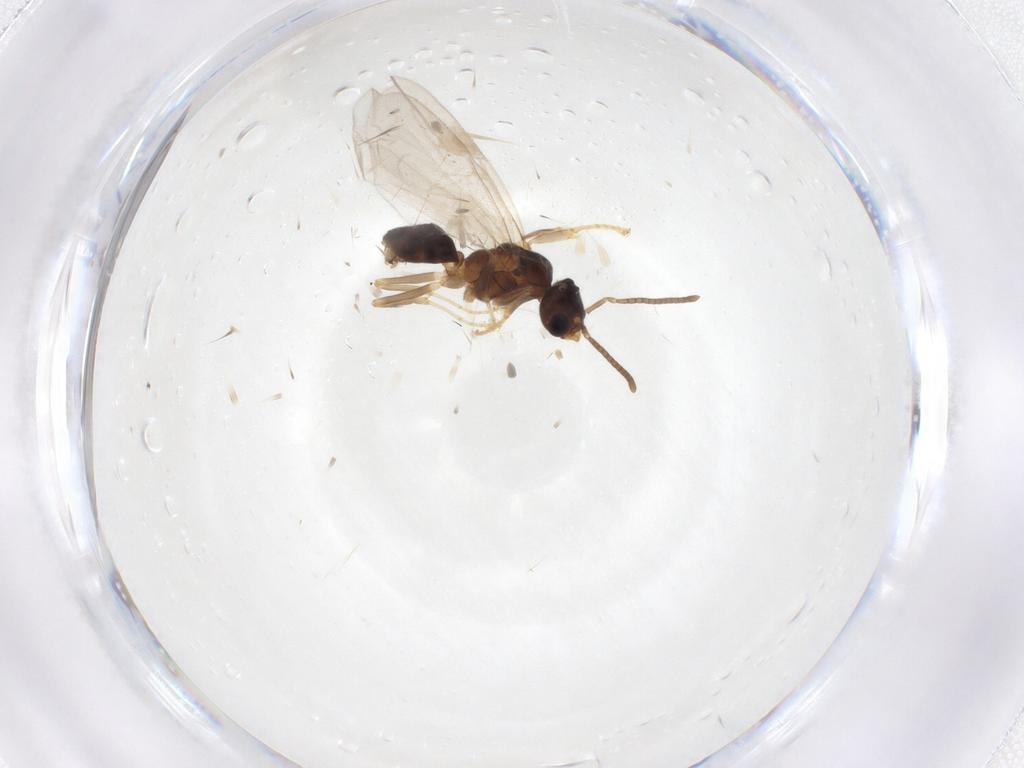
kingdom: Animalia
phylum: Arthropoda
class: Insecta
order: Hymenoptera
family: Formicidae
